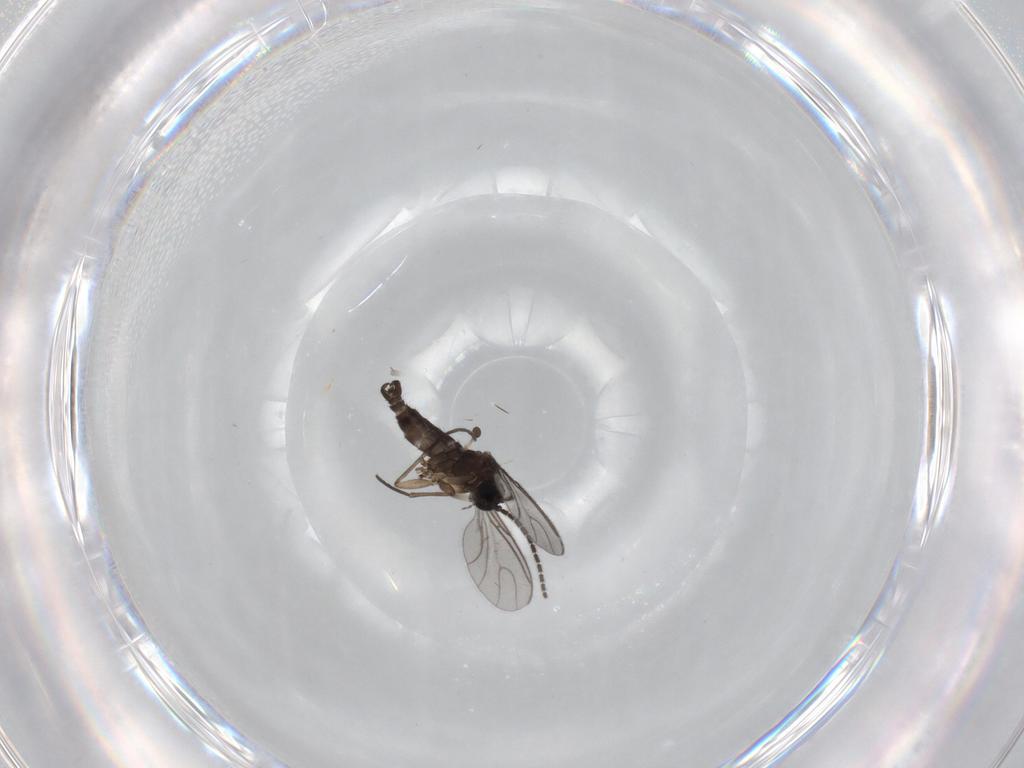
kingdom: Animalia
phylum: Arthropoda
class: Insecta
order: Diptera
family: Sciaridae
